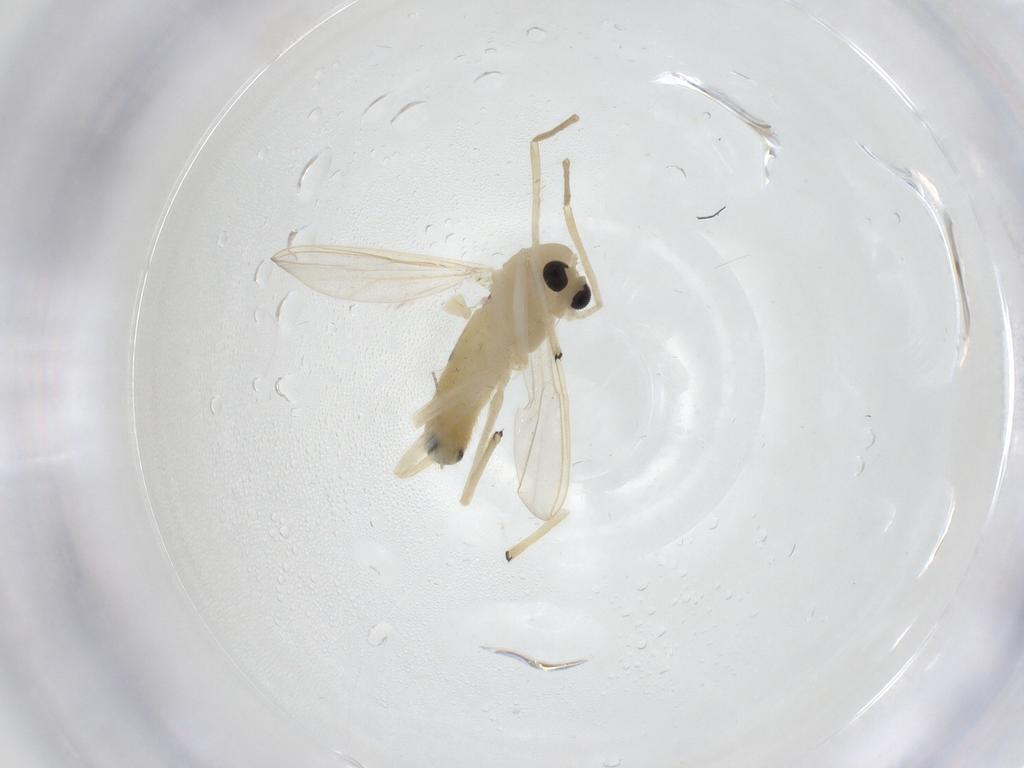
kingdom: Animalia
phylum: Arthropoda
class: Insecta
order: Diptera
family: Chironomidae
